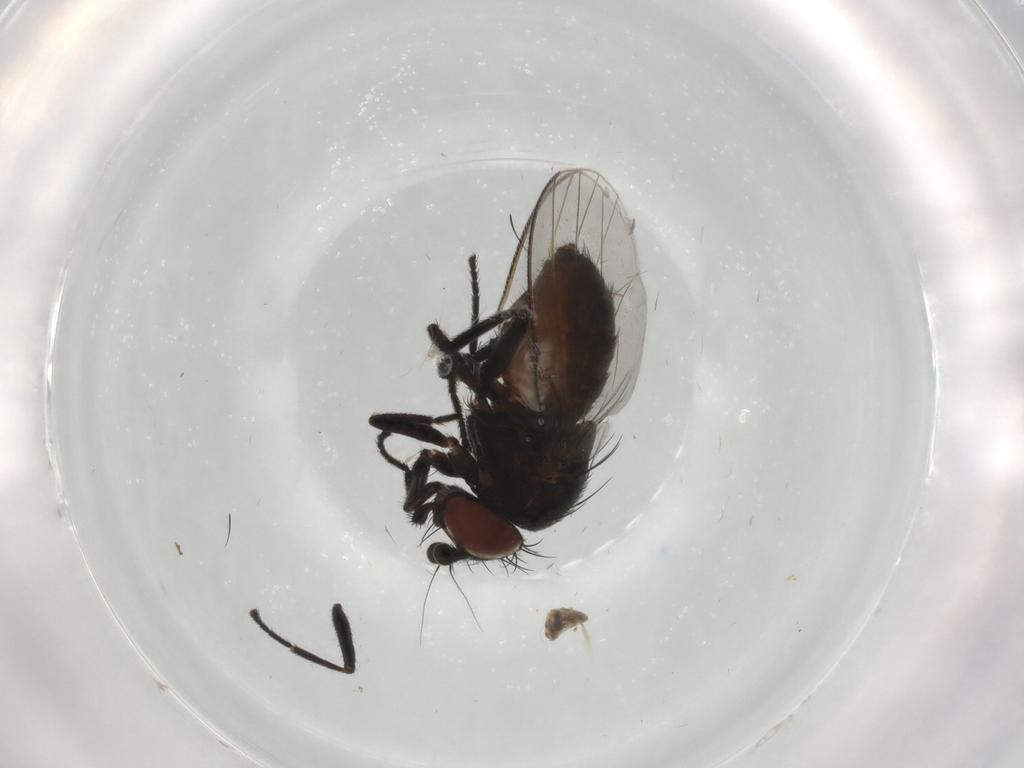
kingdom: Animalia
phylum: Arthropoda
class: Insecta
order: Diptera
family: Milichiidae
